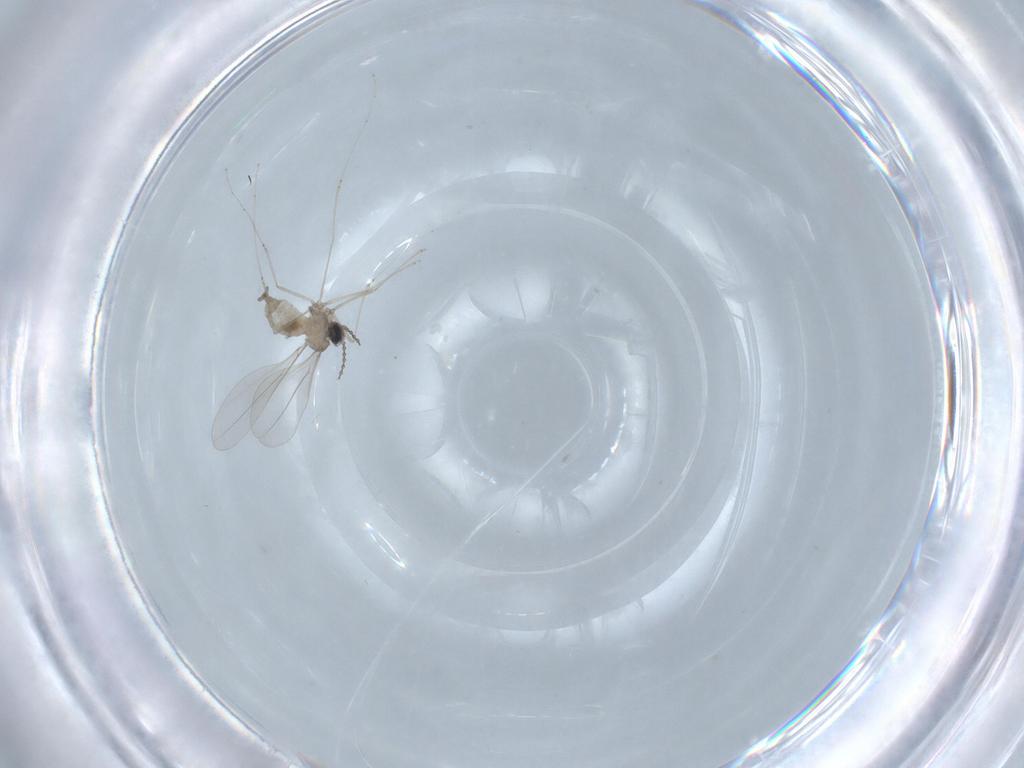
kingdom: Animalia
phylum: Arthropoda
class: Insecta
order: Diptera
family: Cecidomyiidae
